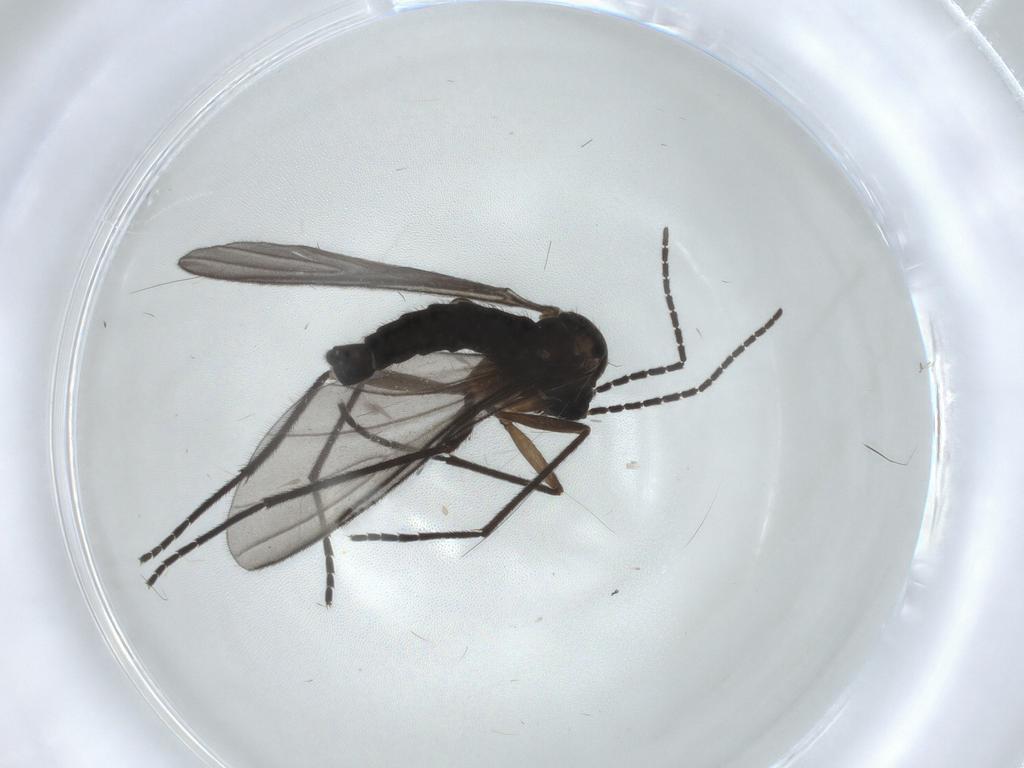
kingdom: Animalia
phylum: Arthropoda
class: Insecta
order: Diptera
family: Sciaridae
